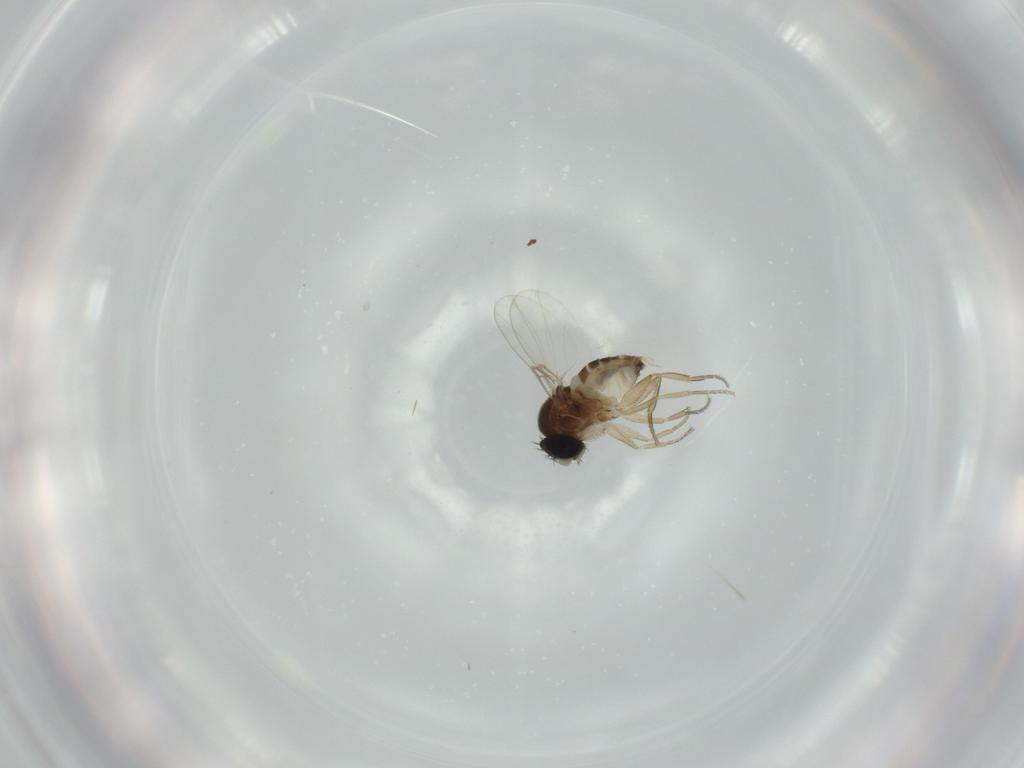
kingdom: Animalia
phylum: Arthropoda
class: Insecta
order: Diptera
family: Phoridae
